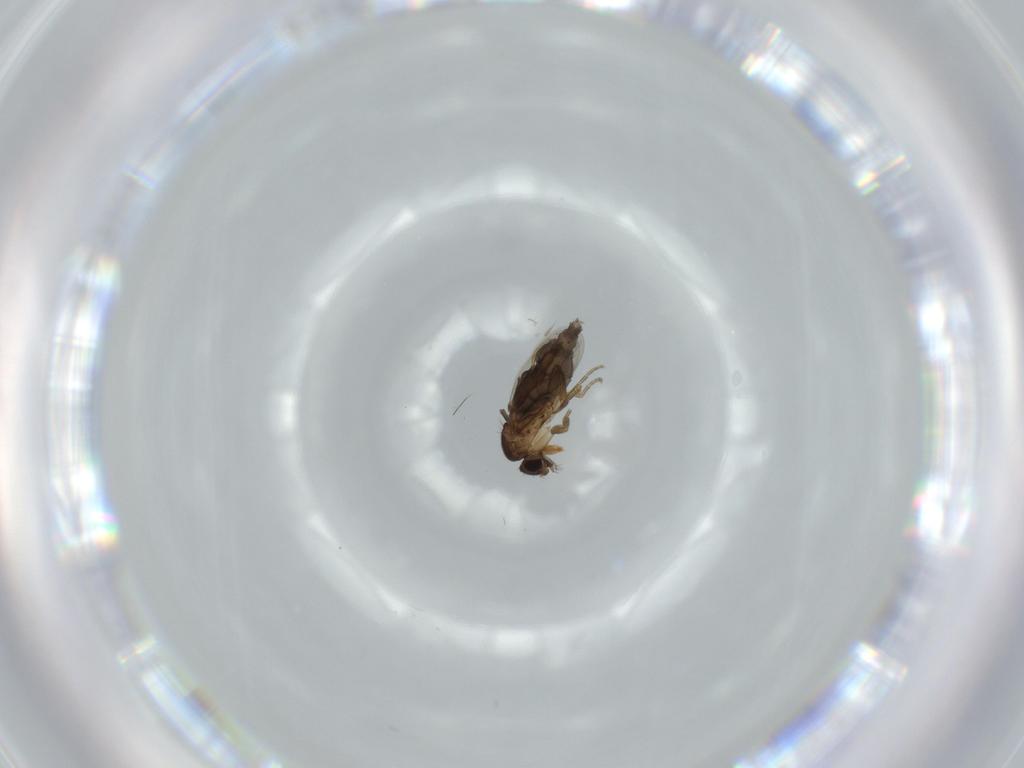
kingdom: Animalia
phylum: Arthropoda
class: Insecta
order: Diptera
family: Phoridae
